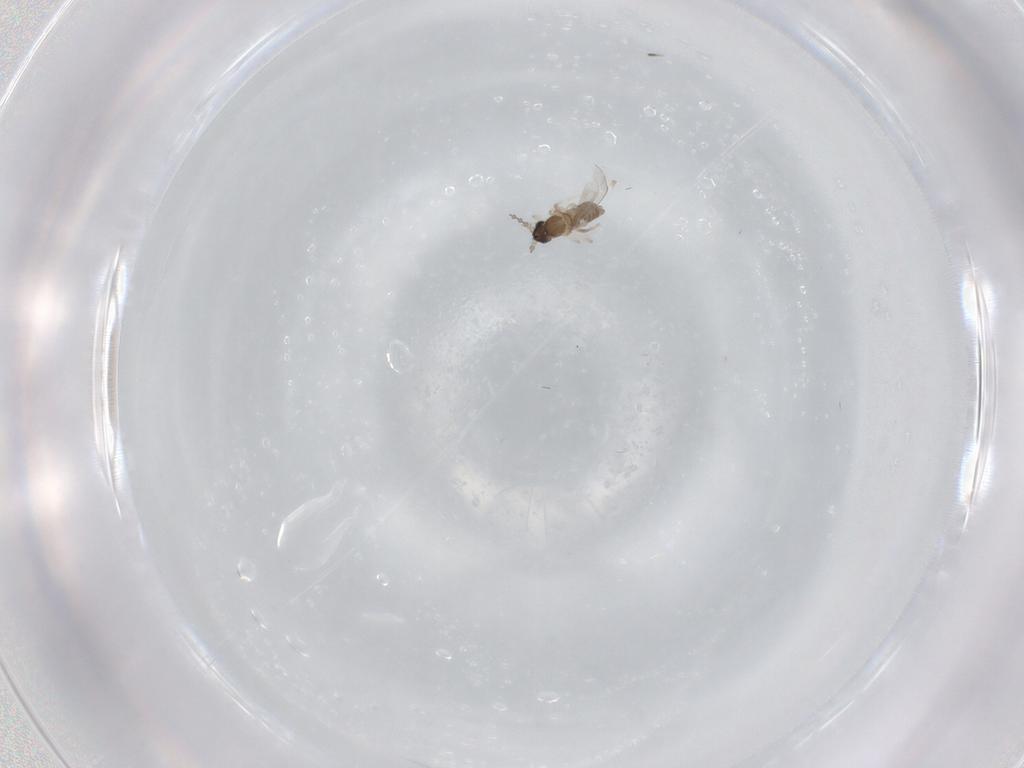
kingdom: Animalia
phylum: Arthropoda
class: Insecta
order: Diptera
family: Cecidomyiidae
